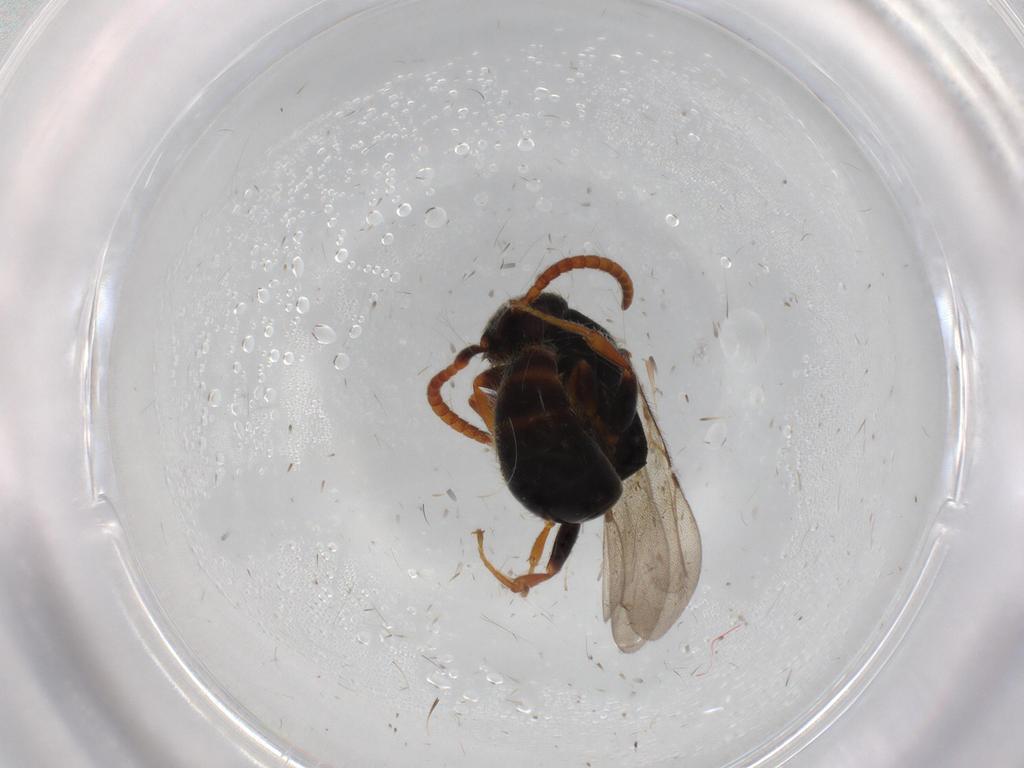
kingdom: Animalia
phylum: Arthropoda
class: Insecta
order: Hymenoptera
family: Bethylidae
